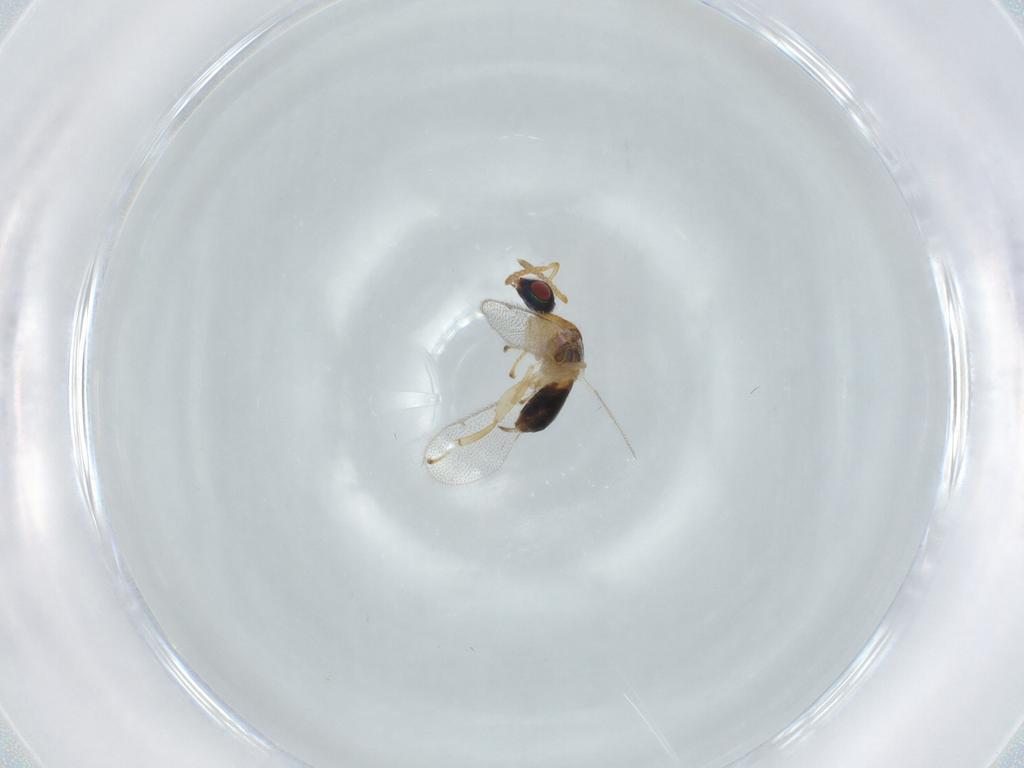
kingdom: Animalia
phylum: Arthropoda
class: Insecta
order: Hymenoptera
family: Torymidae
